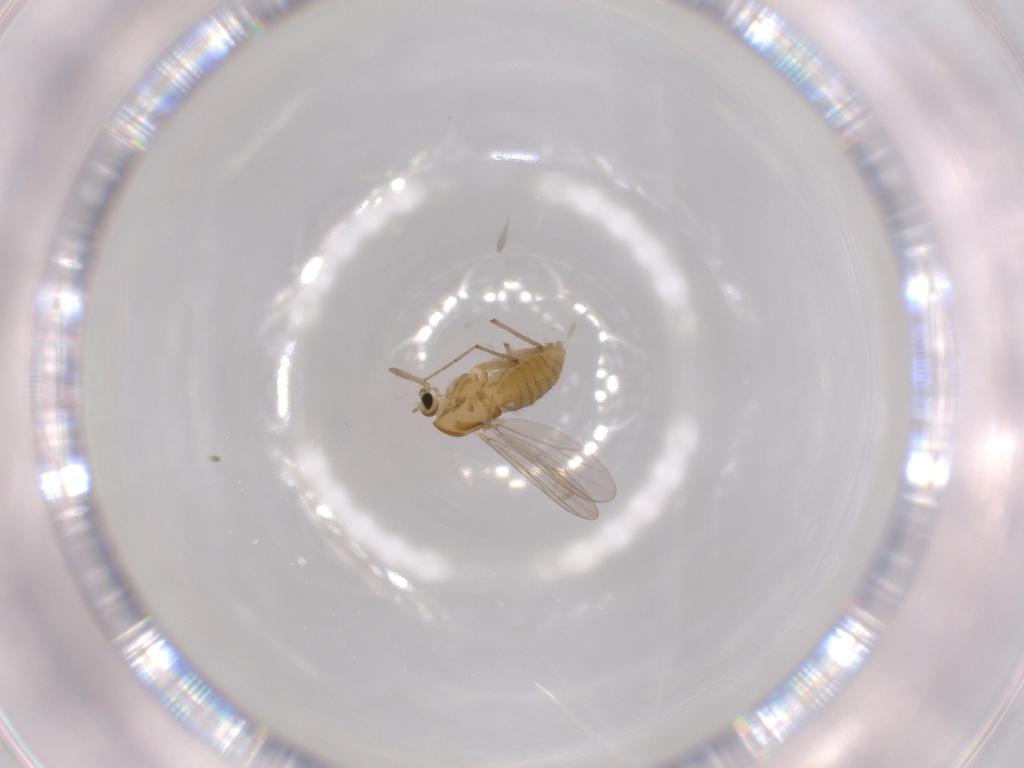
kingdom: Animalia
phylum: Arthropoda
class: Insecta
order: Diptera
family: Chironomidae
